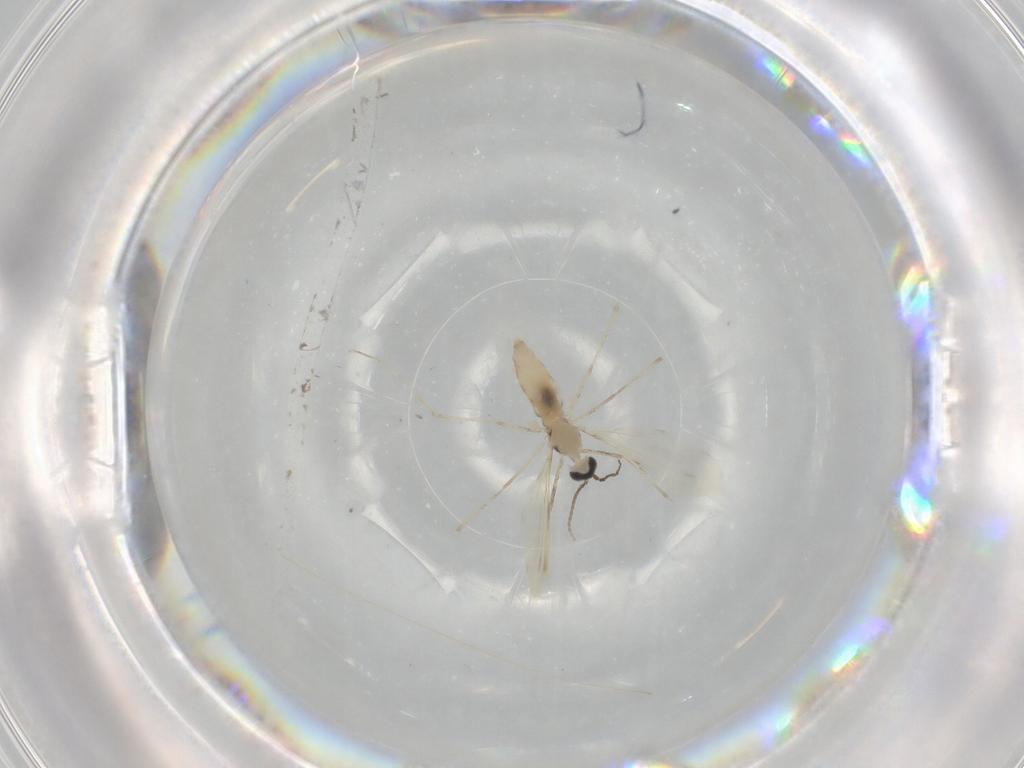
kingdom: Animalia
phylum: Arthropoda
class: Insecta
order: Diptera
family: Cecidomyiidae
